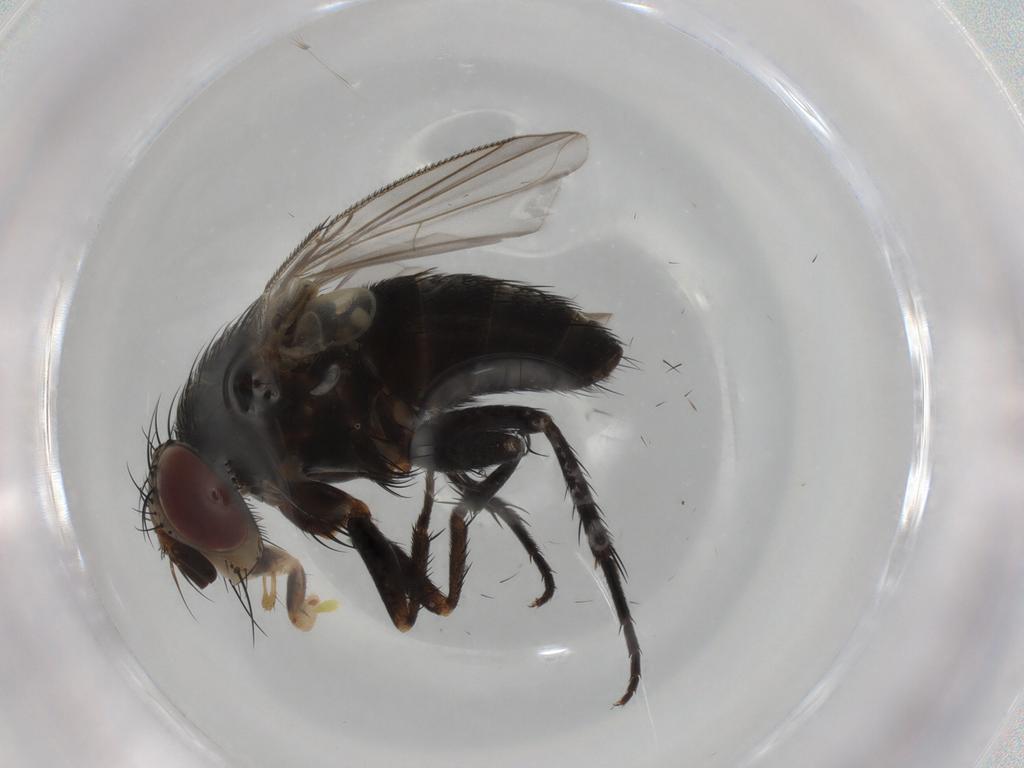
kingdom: Animalia
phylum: Arthropoda
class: Insecta
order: Diptera
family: Tachinidae
